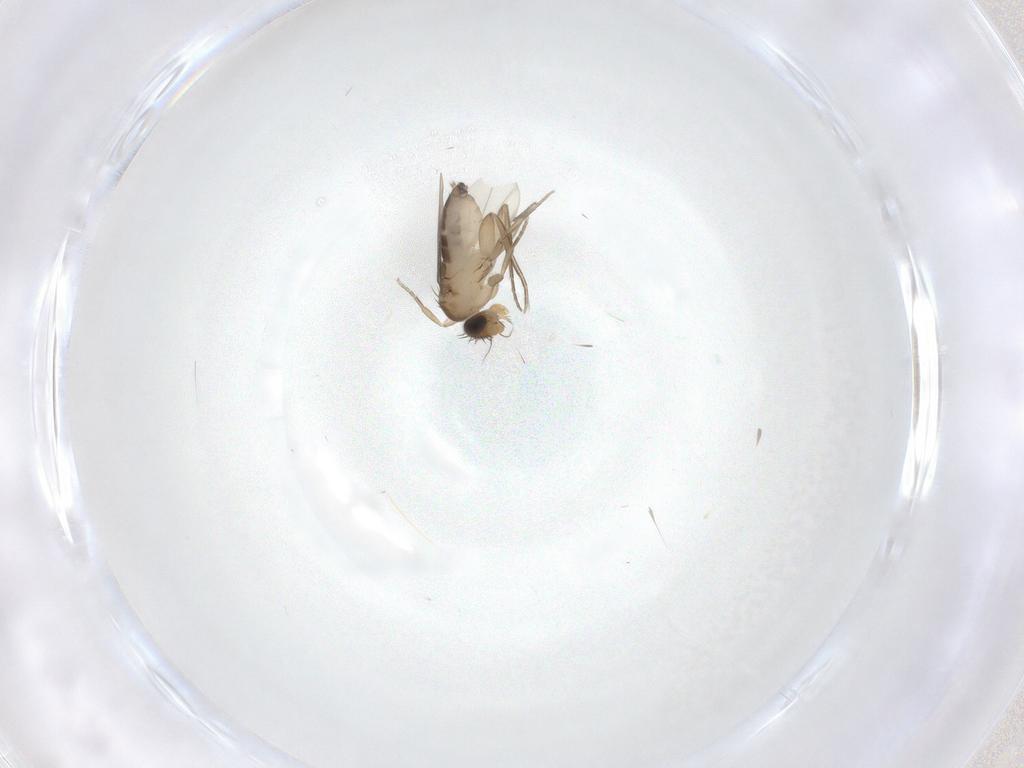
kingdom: Animalia
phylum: Arthropoda
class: Insecta
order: Diptera
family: Phoridae
